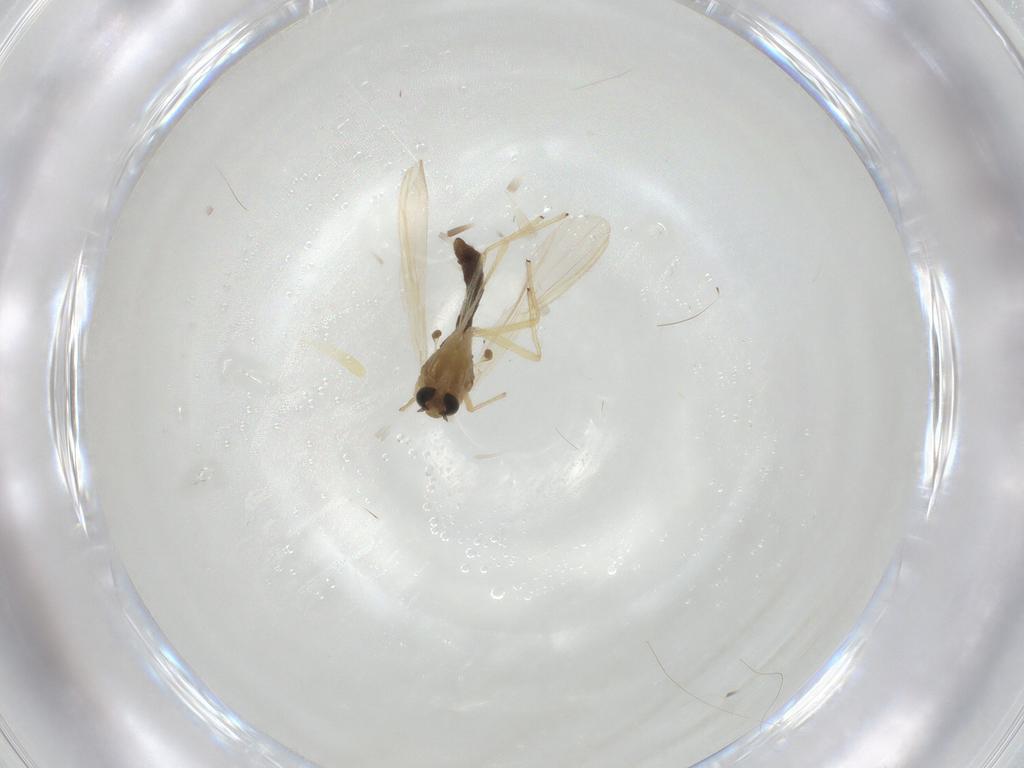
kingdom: Animalia
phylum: Arthropoda
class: Insecta
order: Diptera
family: Chironomidae
